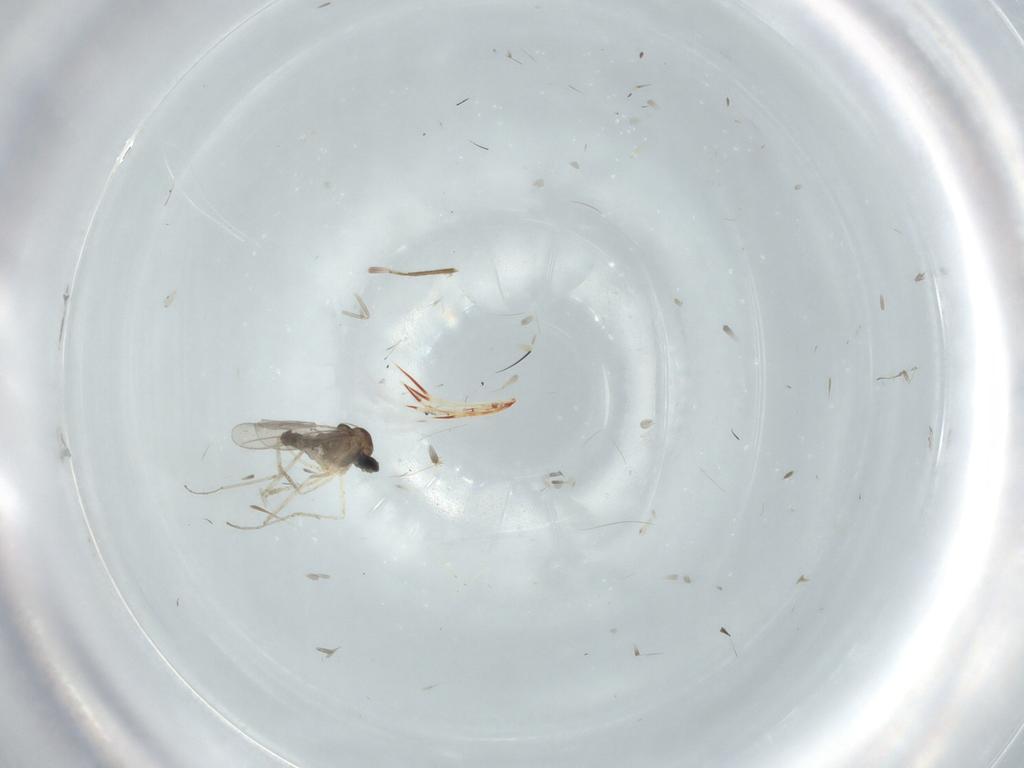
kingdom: Animalia
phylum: Arthropoda
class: Insecta
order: Diptera
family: Cecidomyiidae
